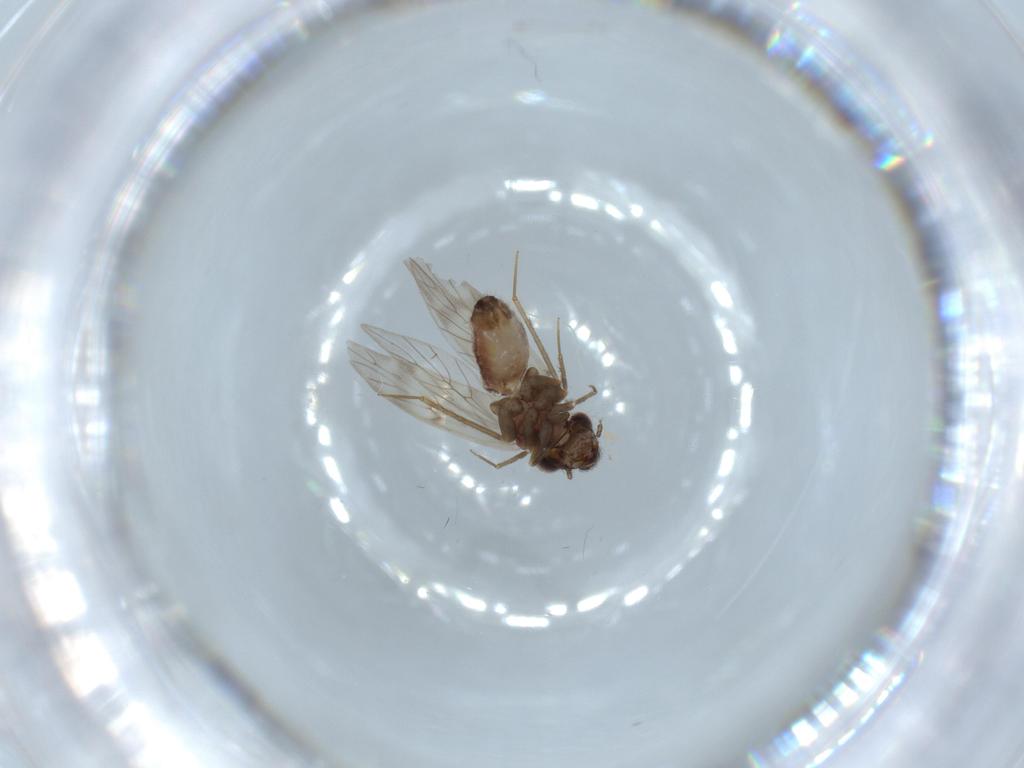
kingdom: Animalia
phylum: Arthropoda
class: Insecta
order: Psocodea
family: Lepidopsocidae
